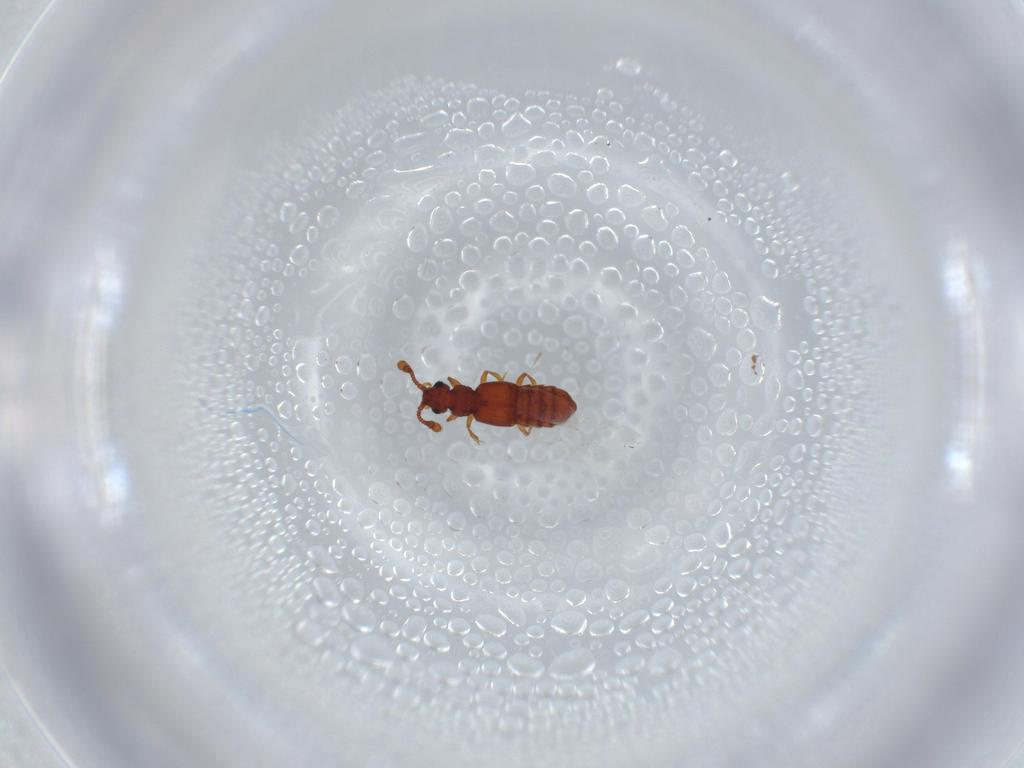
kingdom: Animalia
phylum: Arthropoda
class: Insecta
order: Coleoptera
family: Staphylinidae
